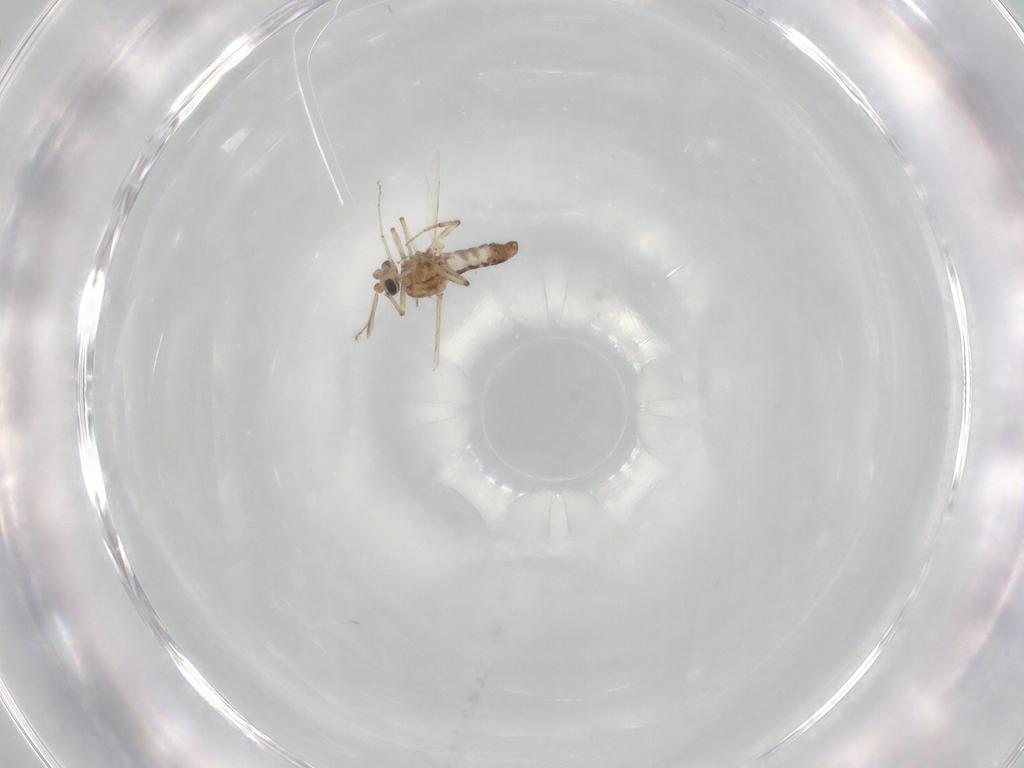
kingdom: Animalia
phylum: Arthropoda
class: Insecta
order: Diptera
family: Ceratopogonidae
